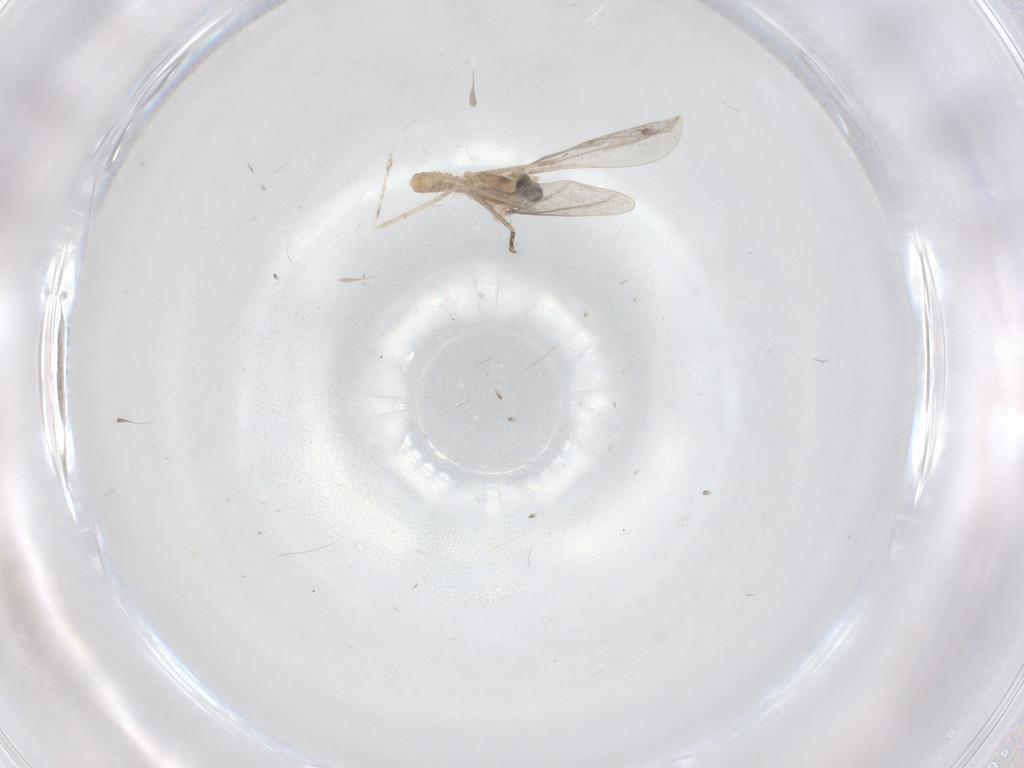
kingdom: Animalia
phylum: Arthropoda
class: Insecta
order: Diptera
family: Cecidomyiidae
